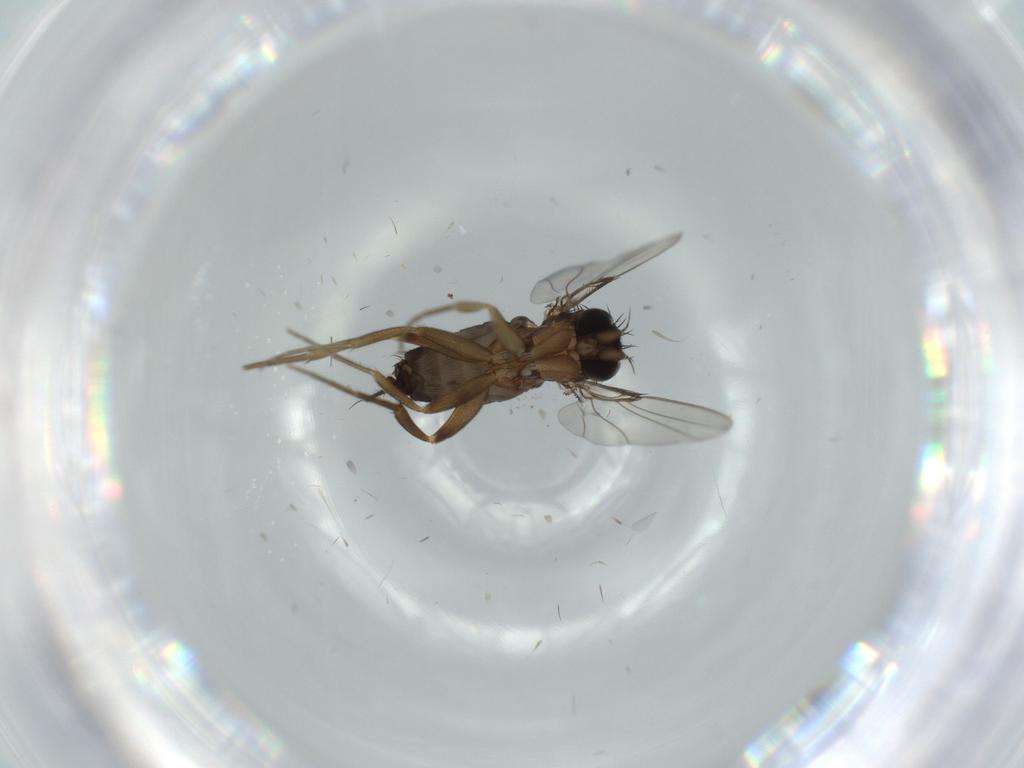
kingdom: Animalia
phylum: Arthropoda
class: Insecta
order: Diptera
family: Phoridae
